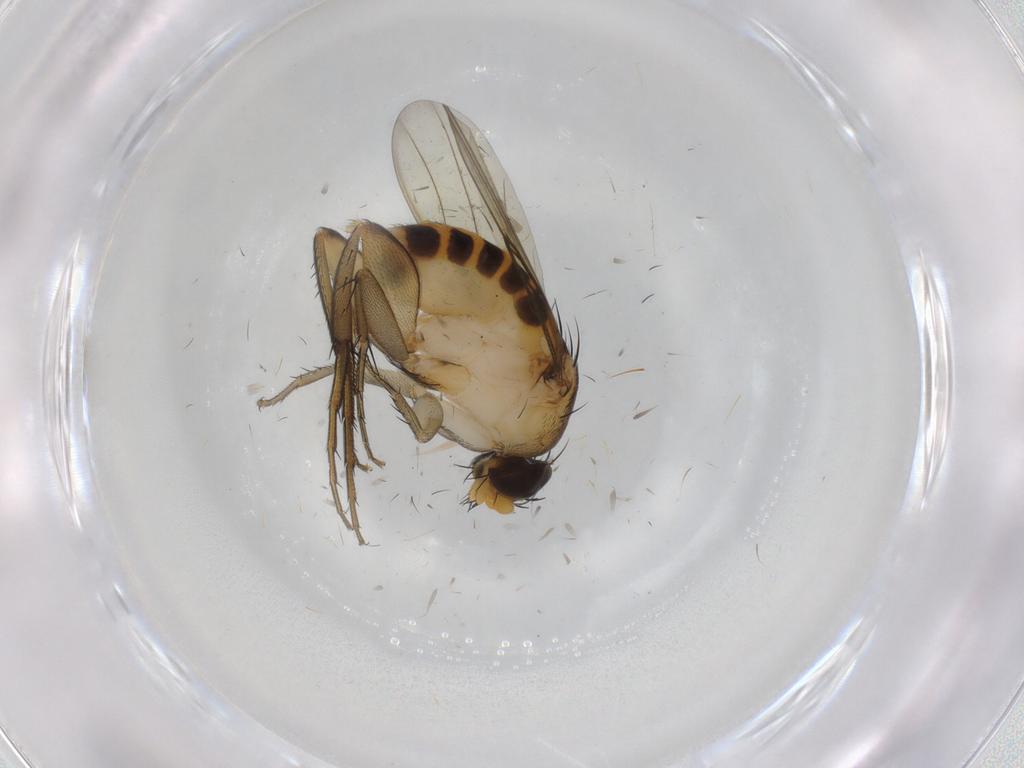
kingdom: Animalia
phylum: Arthropoda
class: Insecta
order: Diptera
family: Phoridae
